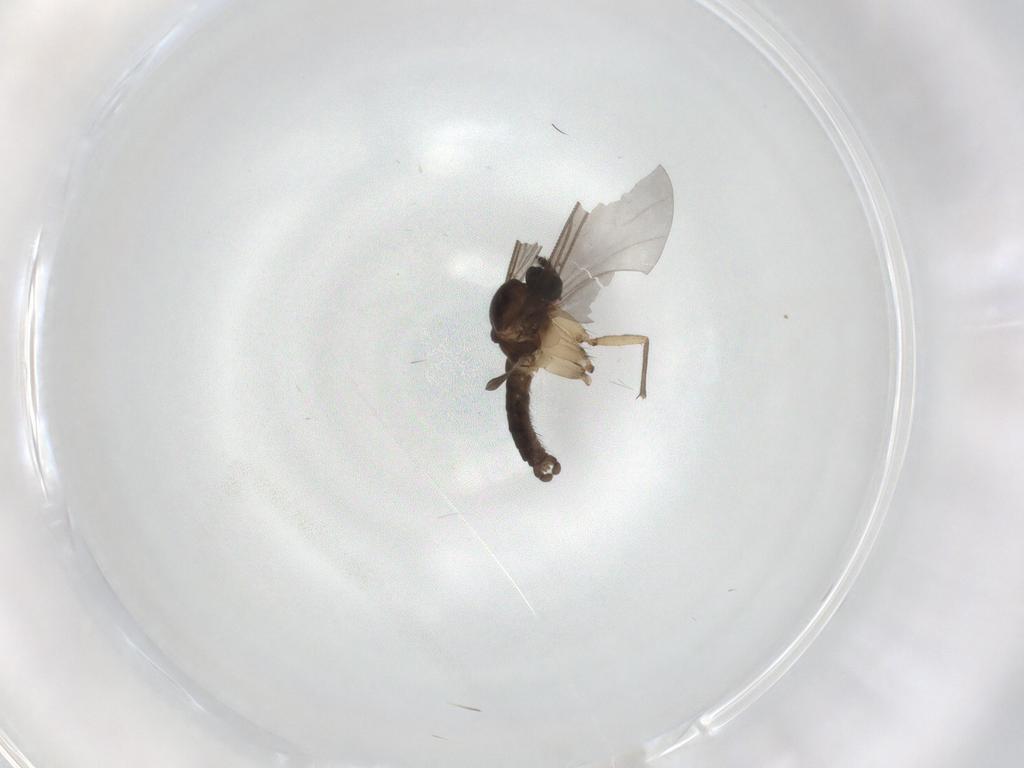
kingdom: Animalia
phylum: Arthropoda
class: Insecta
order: Diptera
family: Sciaridae
